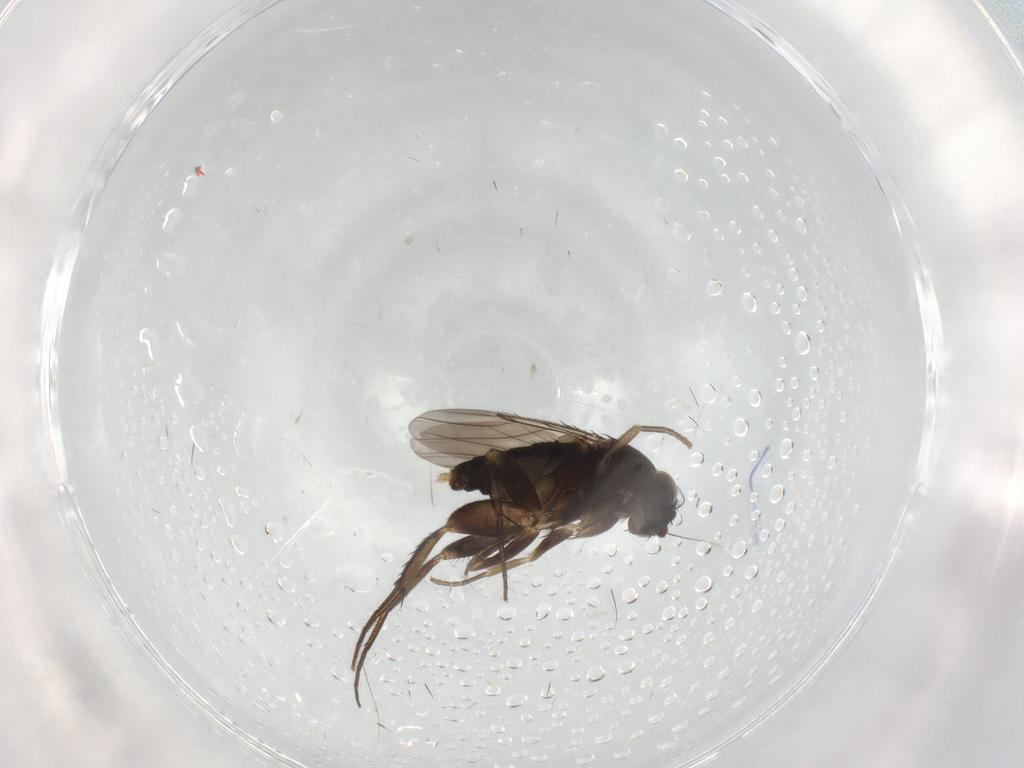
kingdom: Animalia
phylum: Arthropoda
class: Insecta
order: Diptera
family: Phoridae
